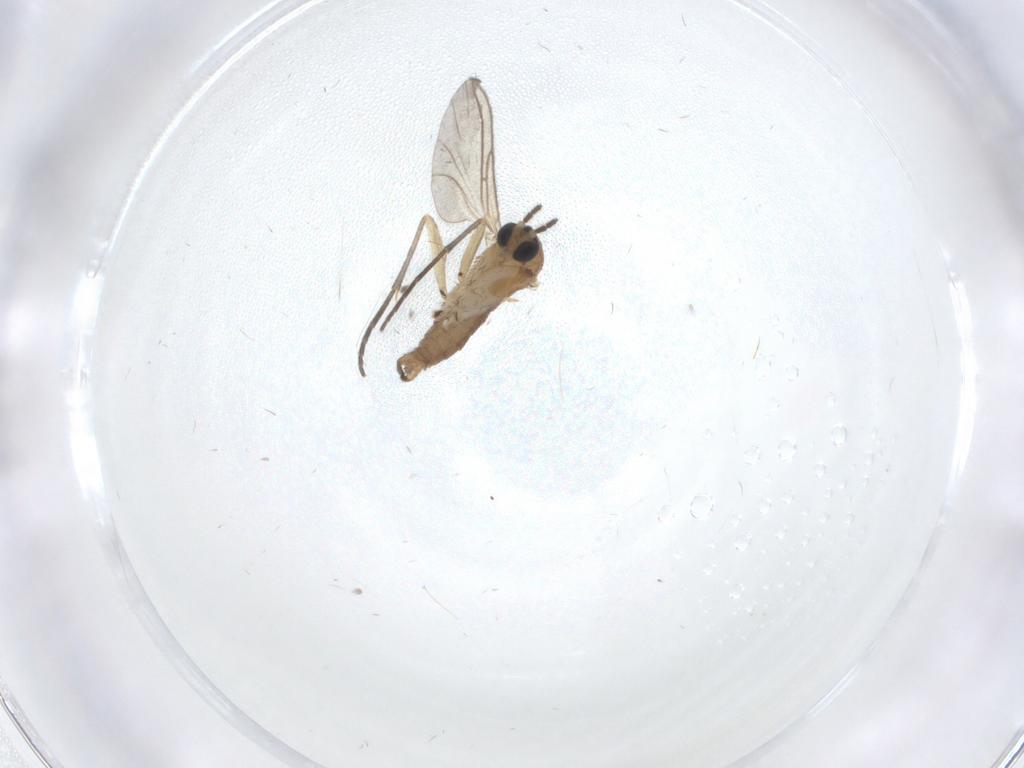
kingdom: Animalia
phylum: Arthropoda
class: Insecta
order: Diptera
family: Sciaridae
